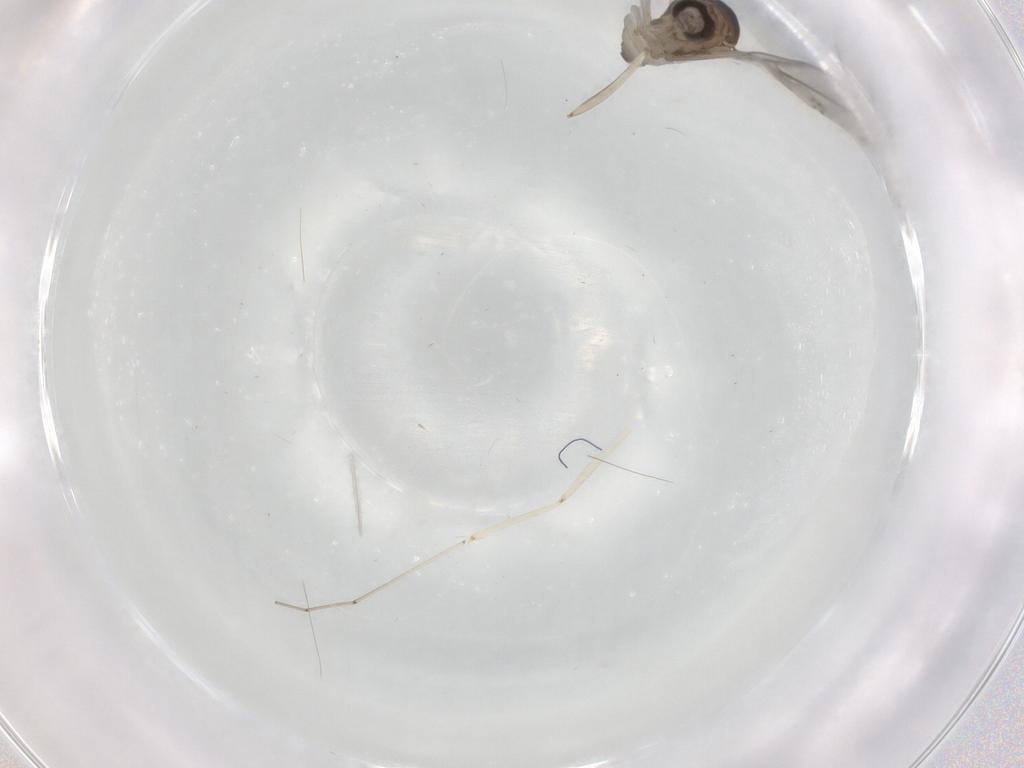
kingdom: Animalia
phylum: Arthropoda
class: Insecta
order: Diptera
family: Cecidomyiidae
